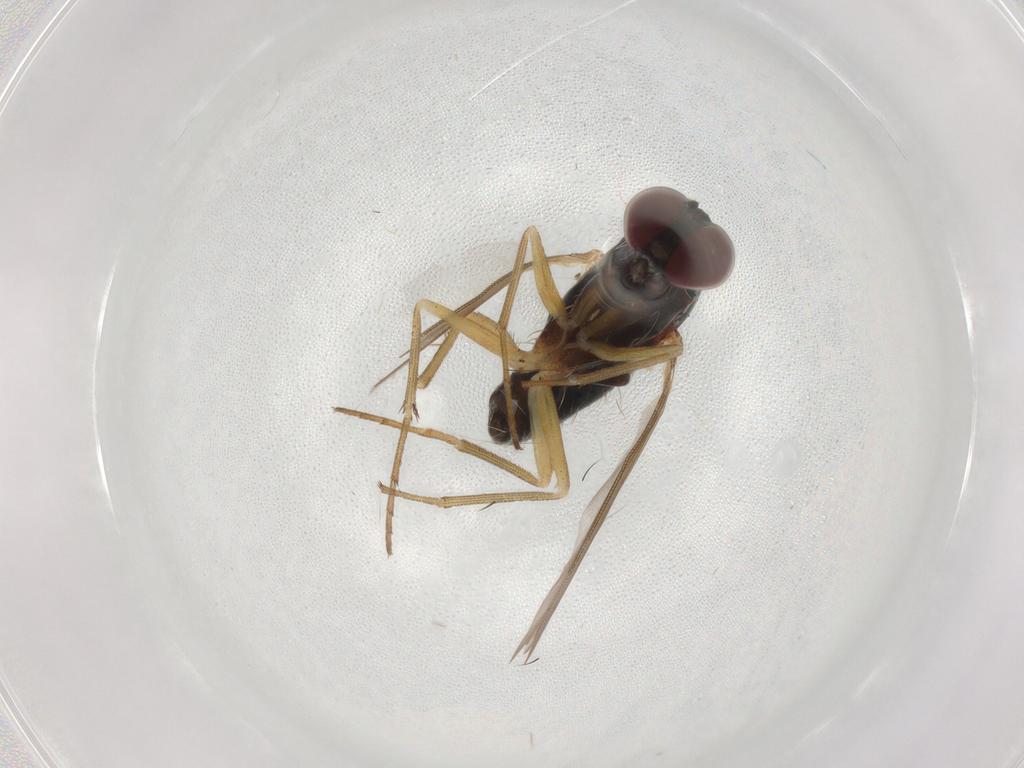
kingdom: Animalia
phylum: Arthropoda
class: Insecta
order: Diptera
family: Dolichopodidae
